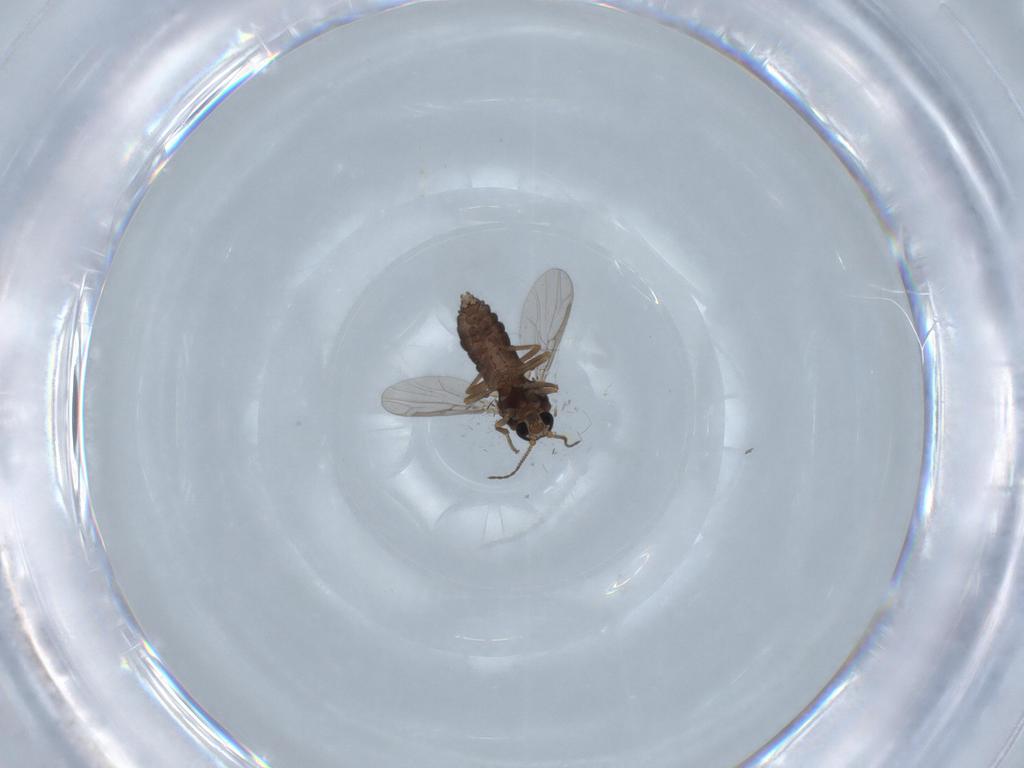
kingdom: Animalia
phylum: Arthropoda
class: Insecta
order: Diptera
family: Ceratopogonidae
